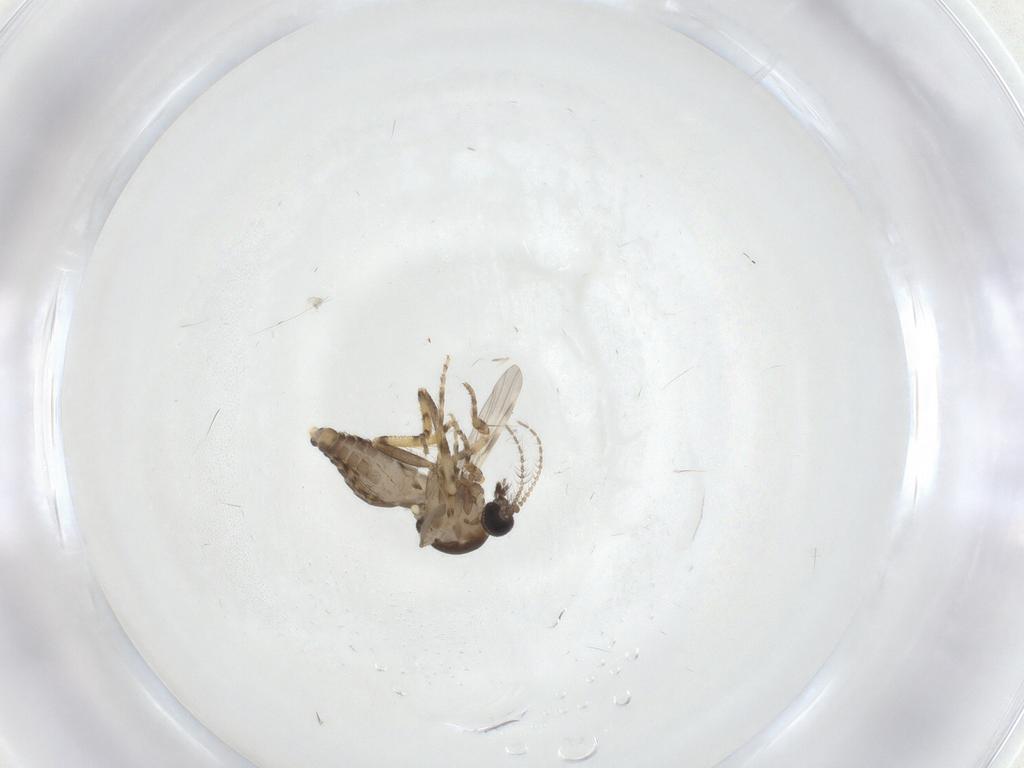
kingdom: Animalia
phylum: Arthropoda
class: Insecta
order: Diptera
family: Ceratopogonidae
